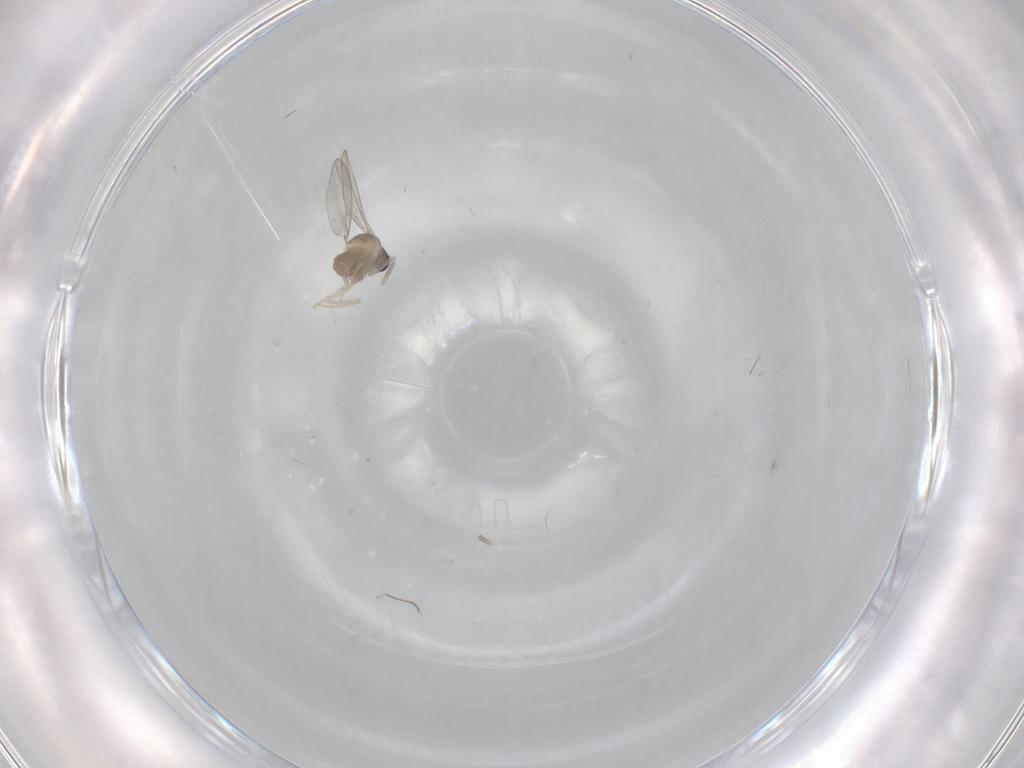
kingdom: Animalia
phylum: Arthropoda
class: Insecta
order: Diptera
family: Cecidomyiidae
